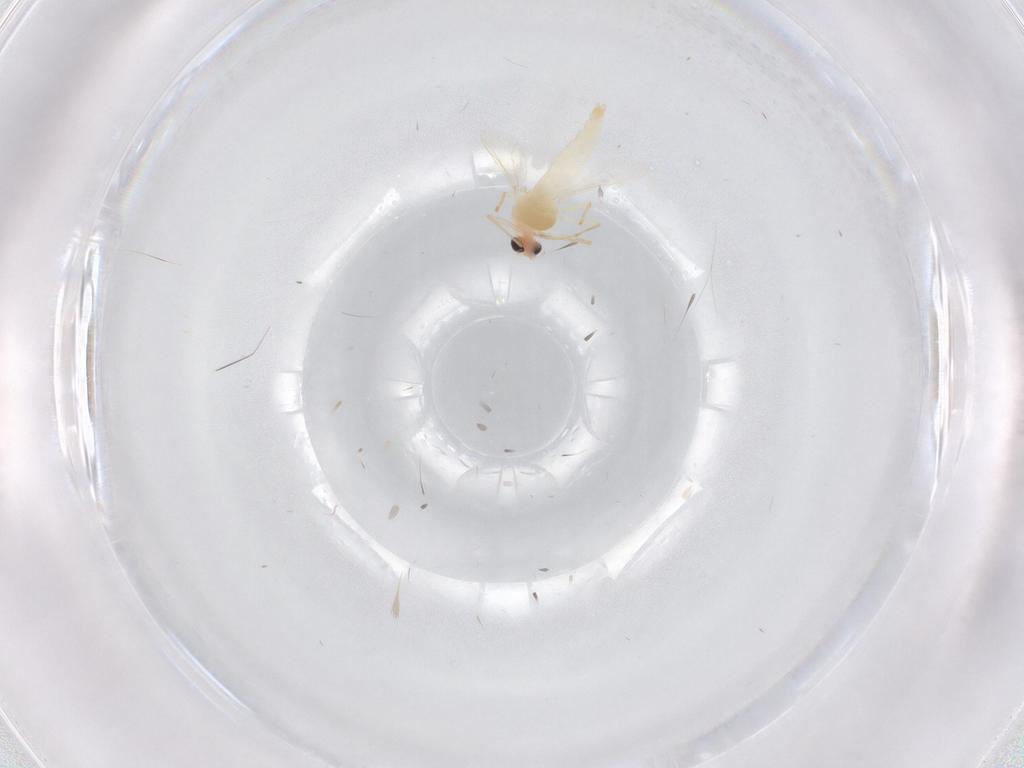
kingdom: Animalia
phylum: Arthropoda
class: Insecta
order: Diptera
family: Chironomidae
